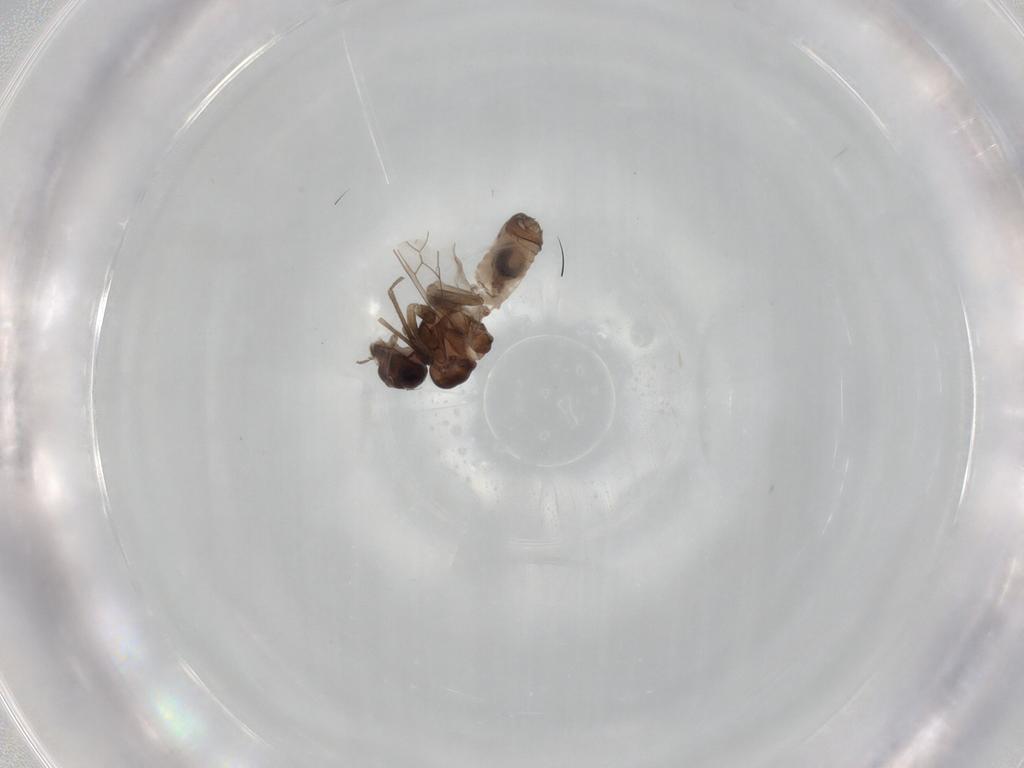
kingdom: Animalia
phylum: Arthropoda
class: Insecta
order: Psocodea
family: Peripsocidae
